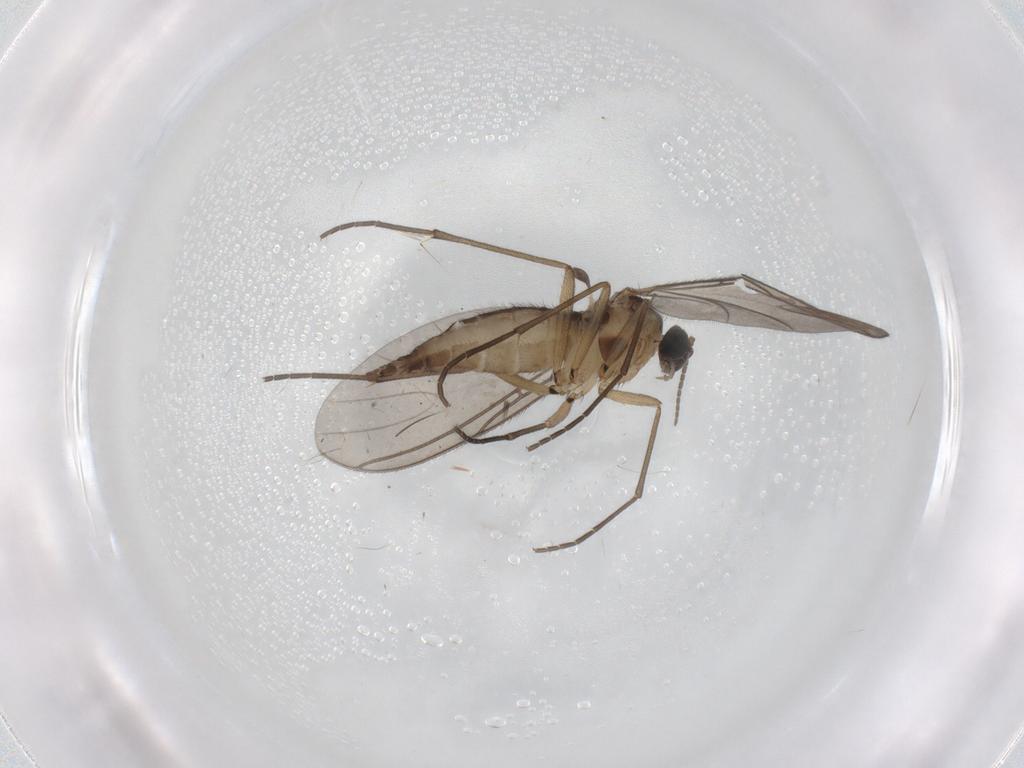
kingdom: Animalia
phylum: Arthropoda
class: Insecta
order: Diptera
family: Sciaridae
